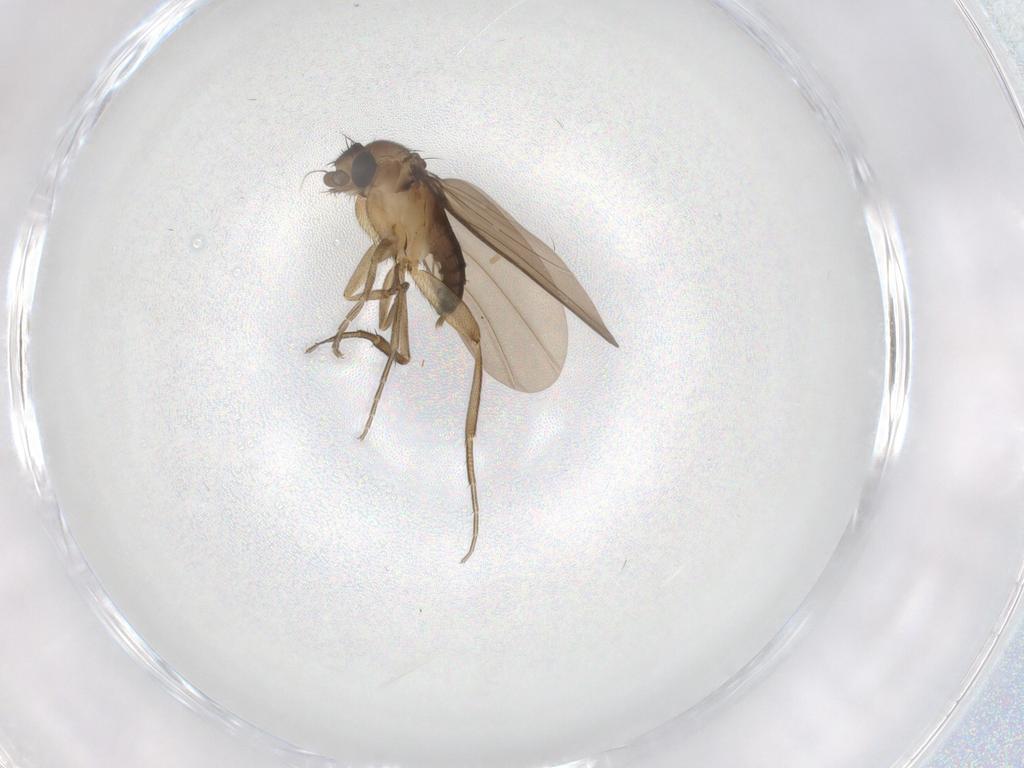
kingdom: Animalia
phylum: Arthropoda
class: Insecta
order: Diptera
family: Phoridae
